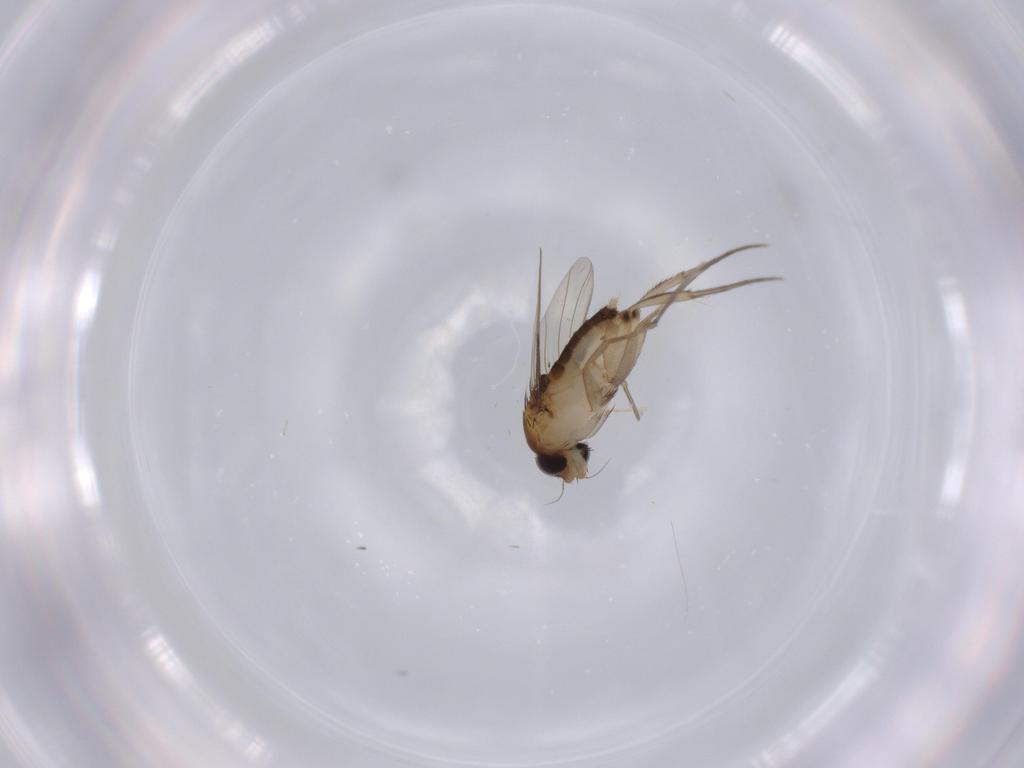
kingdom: Animalia
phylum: Arthropoda
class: Insecta
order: Diptera
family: Phoridae
